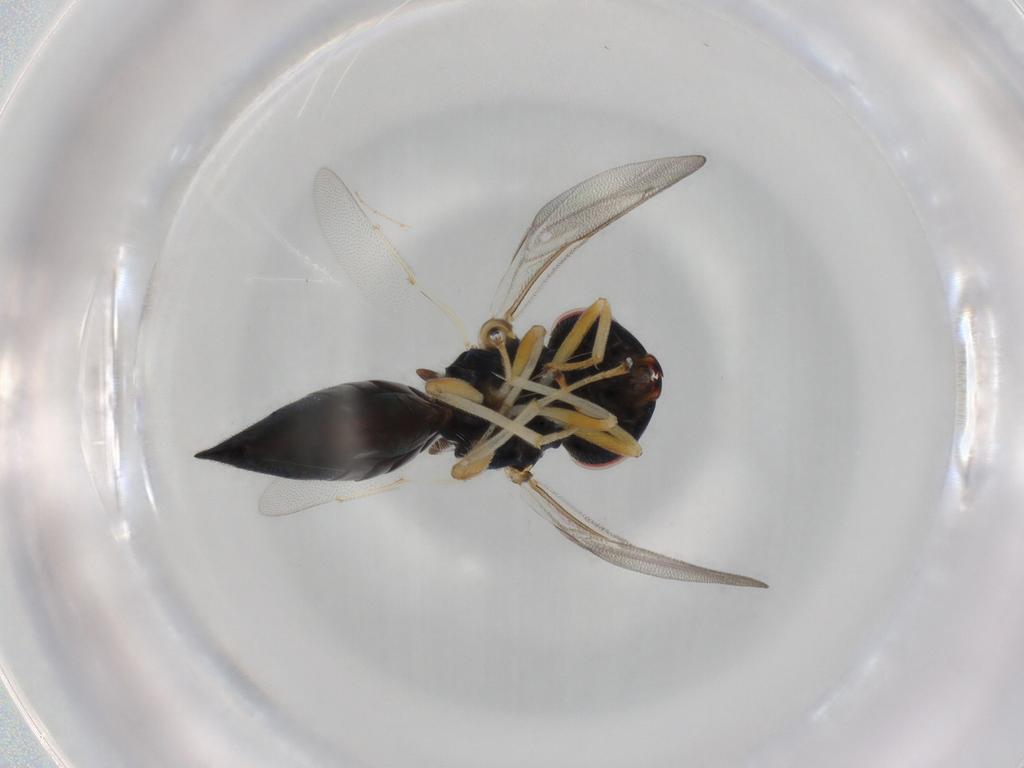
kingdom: Animalia
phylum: Arthropoda
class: Insecta
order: Hymenoptera
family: Pteromalidae
